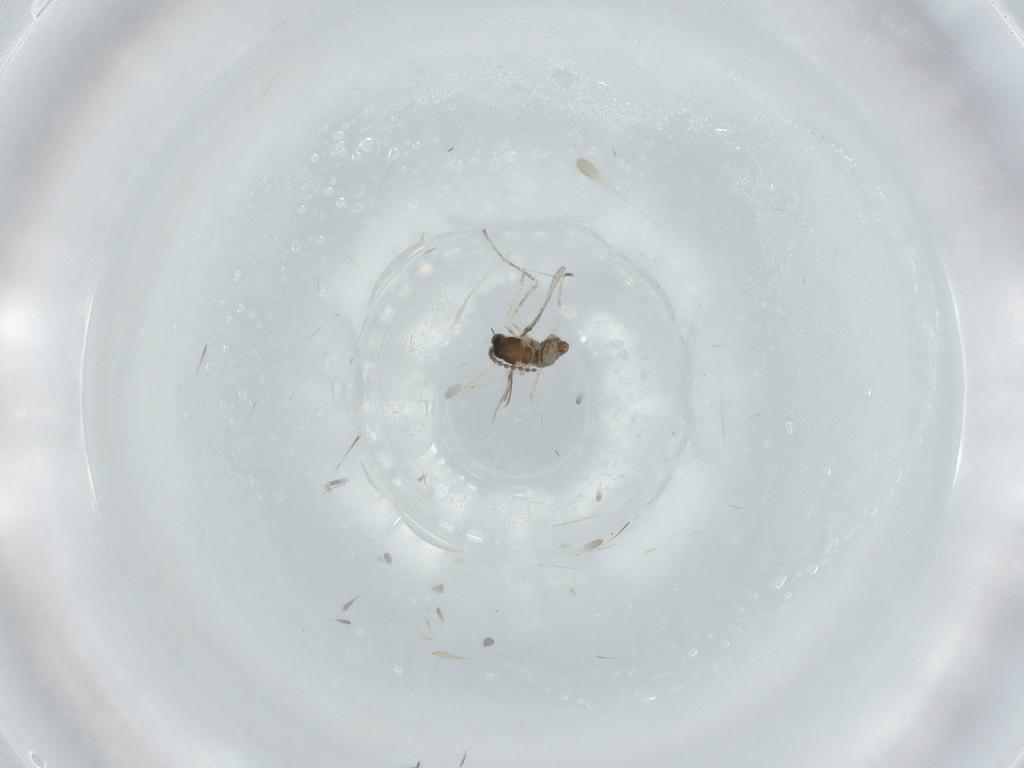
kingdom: Animalia
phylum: Arthropoda
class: Insecta
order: Diptera
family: Cecidomyiidae
